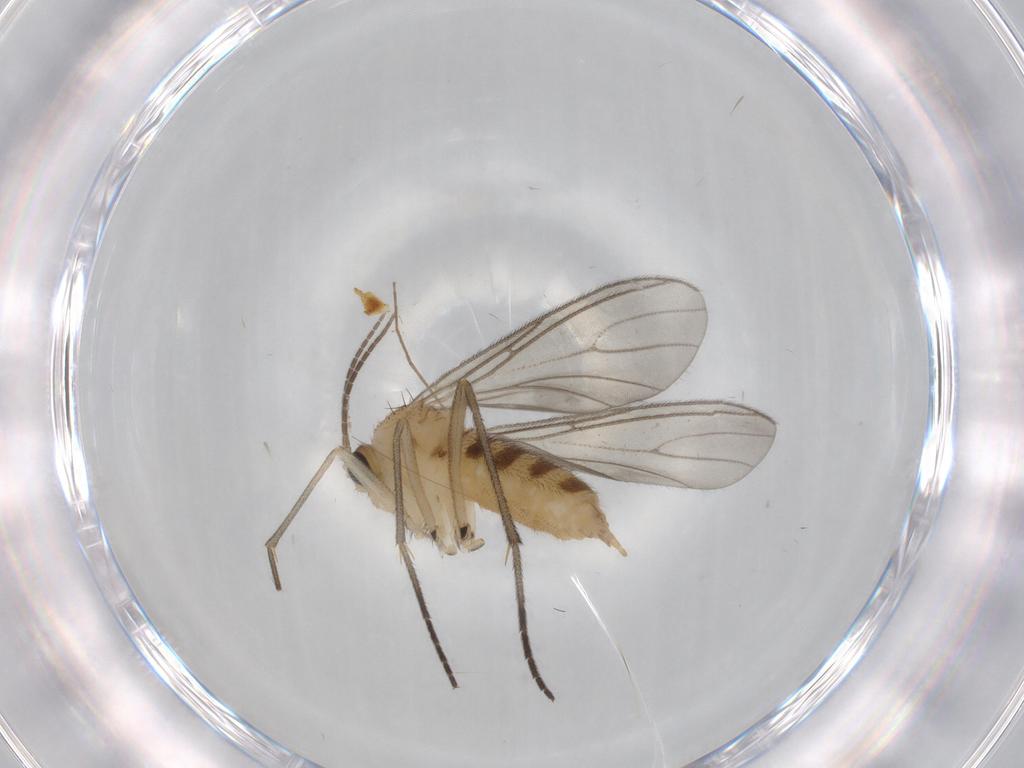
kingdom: Animalia
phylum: Arthropoda
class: Insecta
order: Diptera
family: Sciaridae
